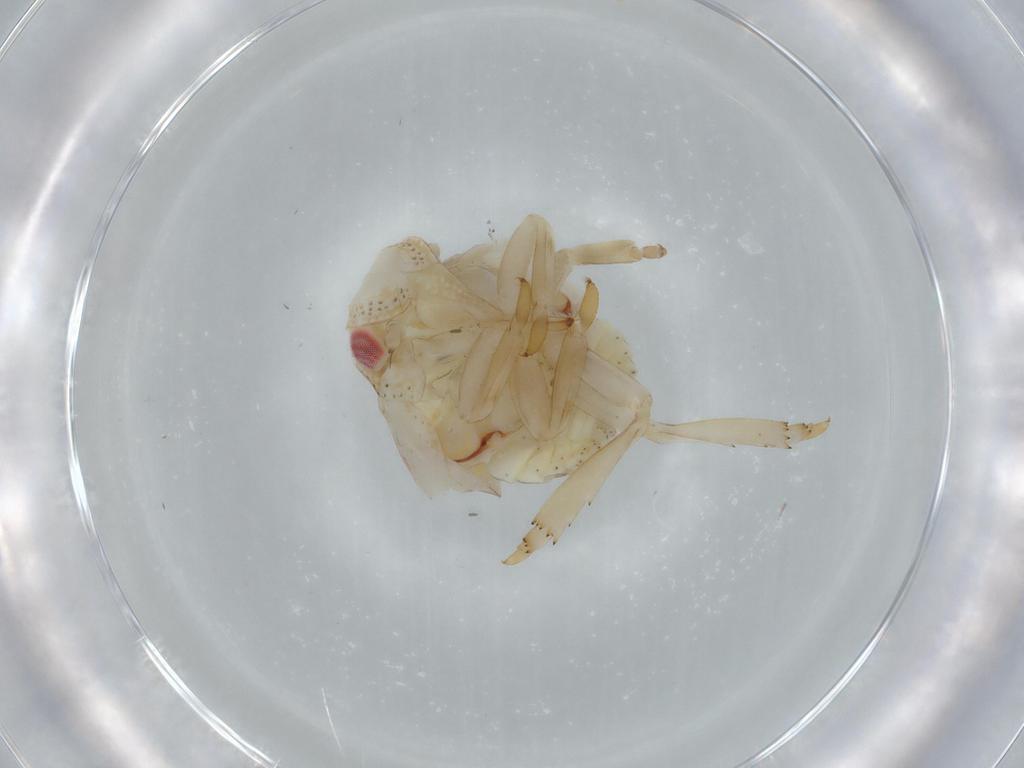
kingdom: Animalia
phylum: Arthropoda
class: Insecta
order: Hemiptera
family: Acanaloniidae
